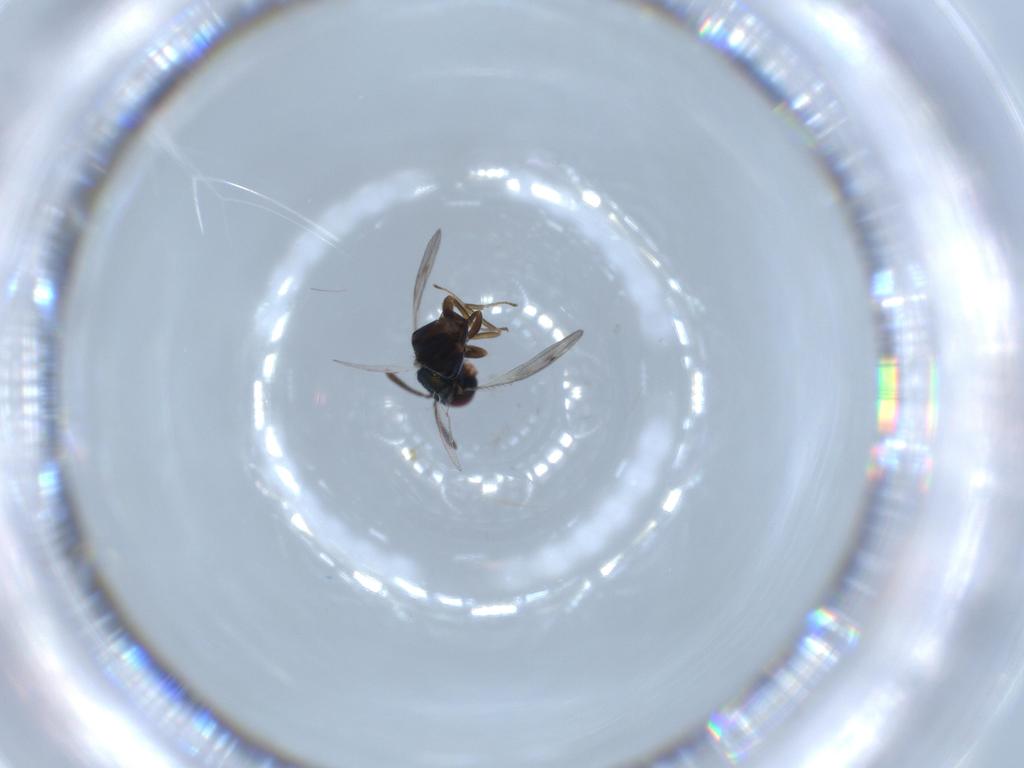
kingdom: Animalia
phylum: Arthropoda
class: Insecta
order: Hymenoptera
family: Pteromalidae
